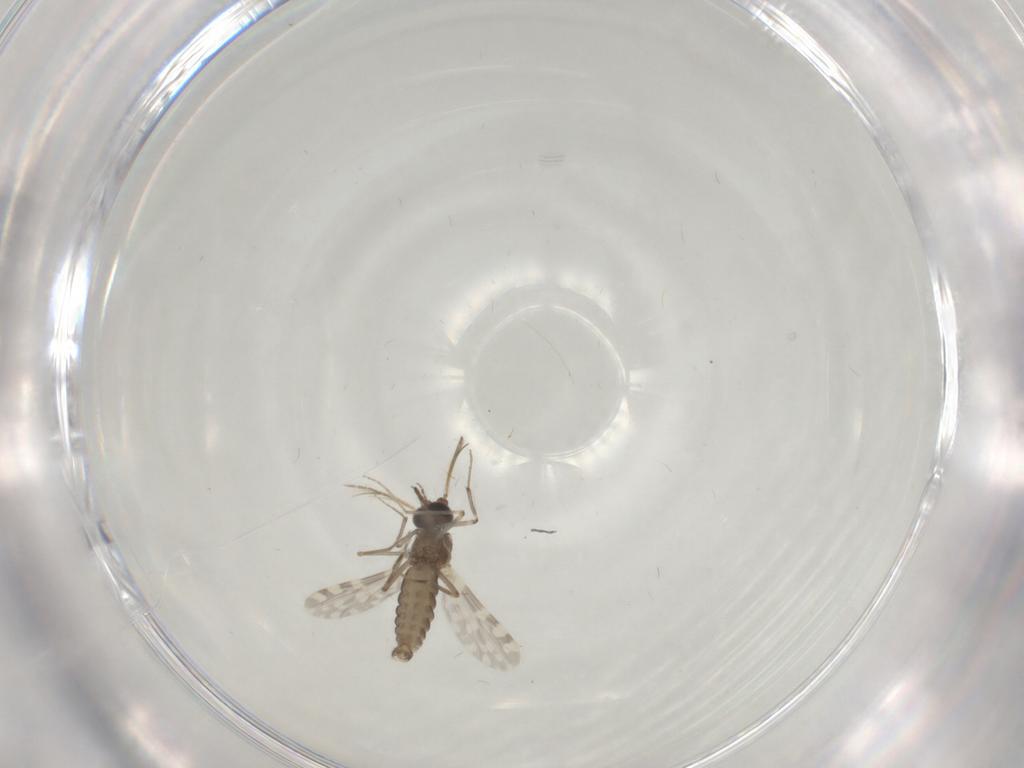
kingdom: Animalia
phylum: Arthropoda
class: Insecta
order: Diptera
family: Ceratopogonidae
